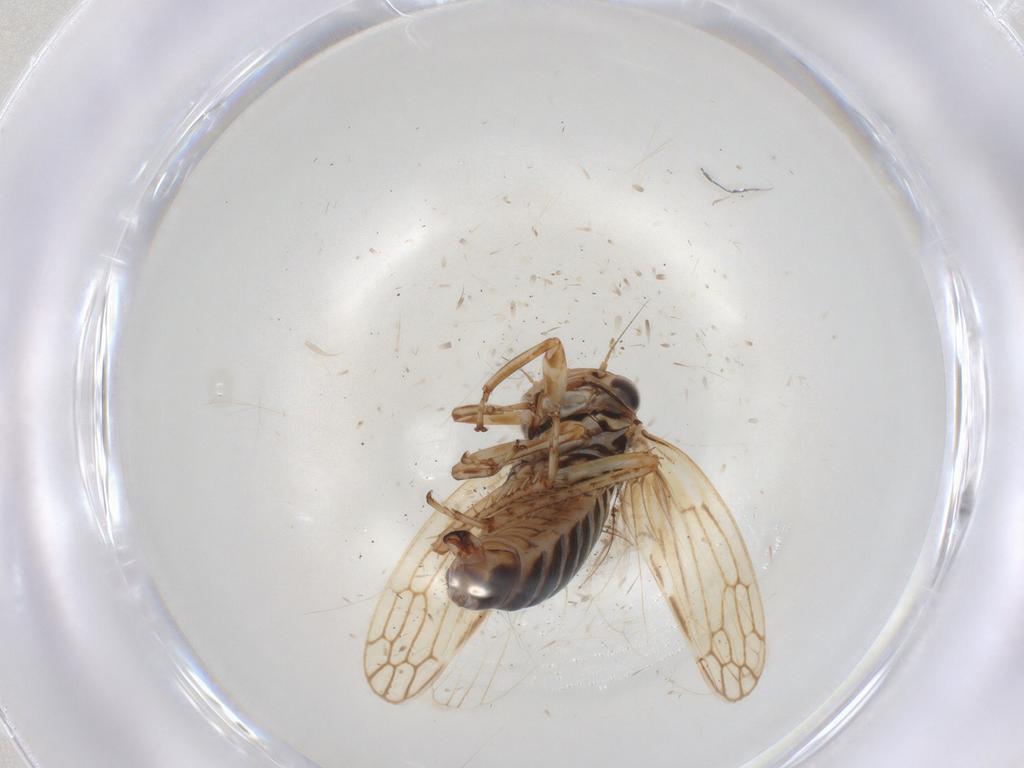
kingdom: Animalia
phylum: Arthropoda
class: Insecta
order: Hemiptera
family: Cicadellidae
